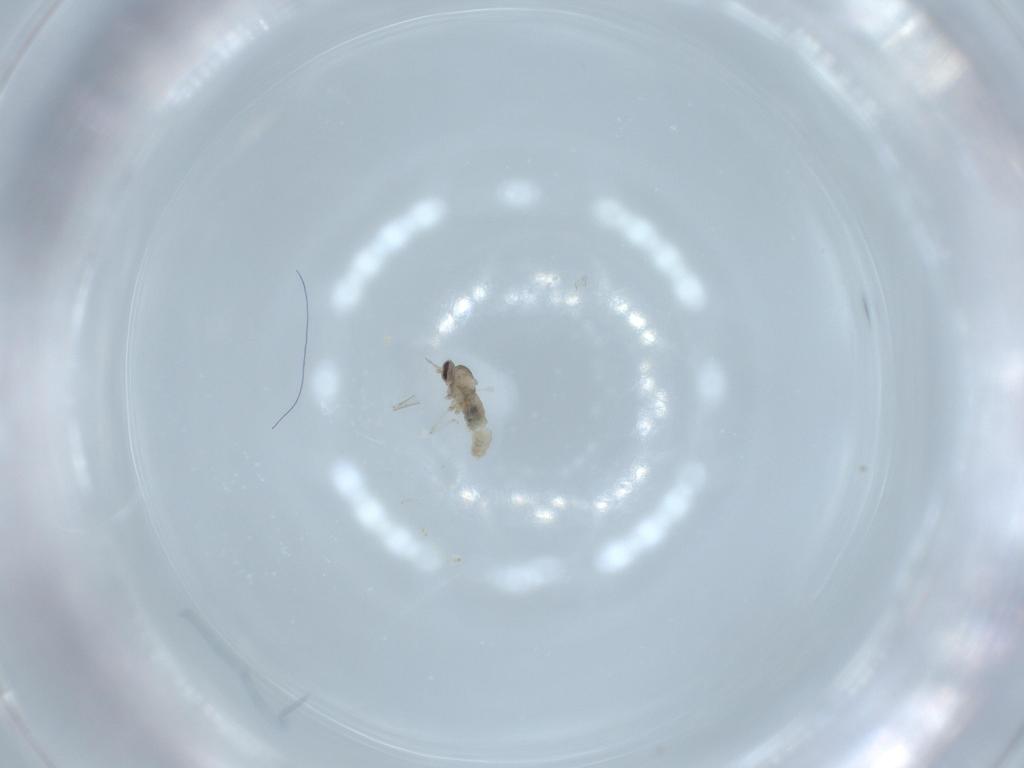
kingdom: Animalia
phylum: Arthropoda
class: Insecta
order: Diptera
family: Cecidomyiidae
